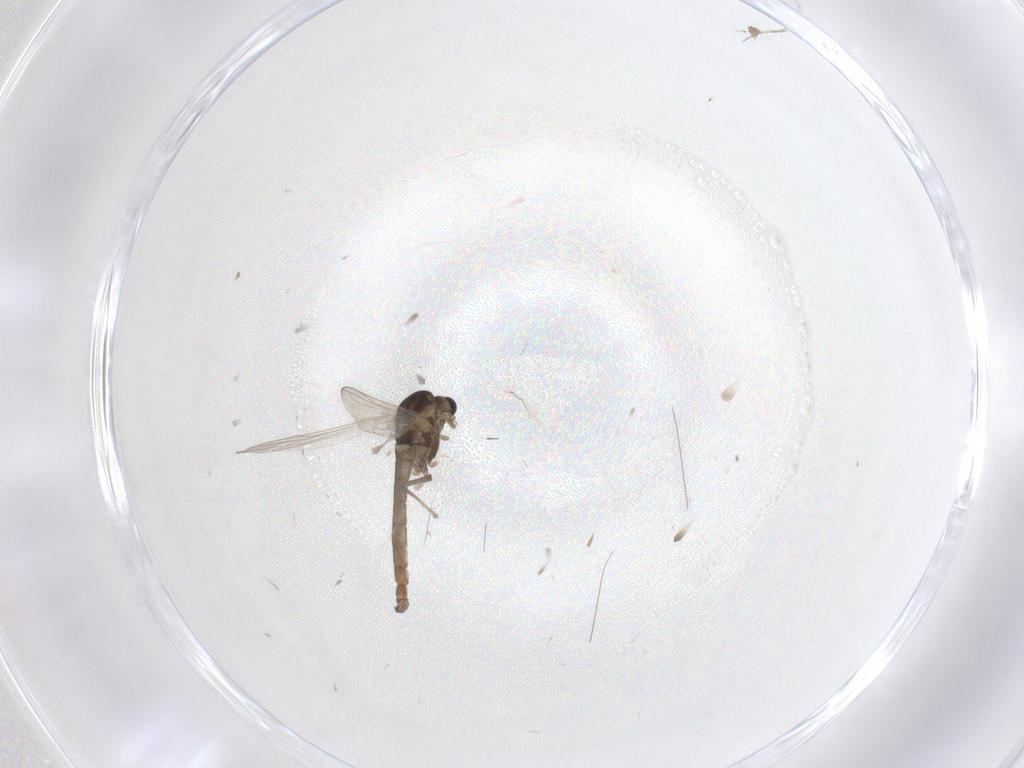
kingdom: Animalia
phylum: Arthropoda
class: Insecta
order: Diptera
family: Chironomidae
